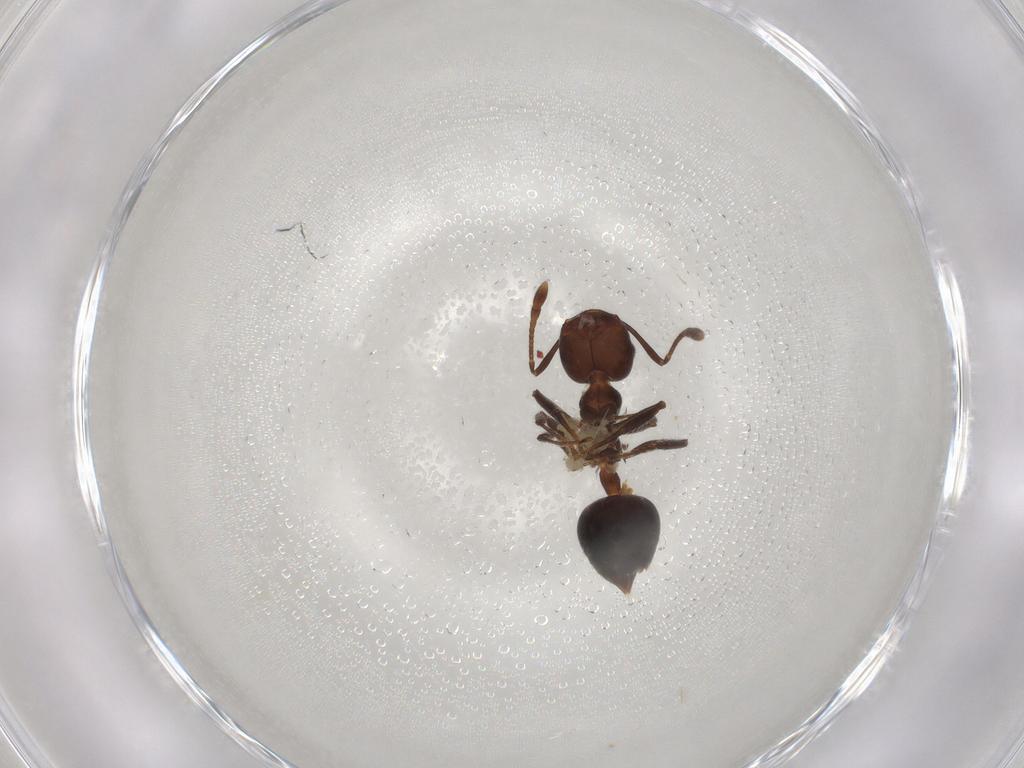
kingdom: Animalia
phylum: Arthropoda
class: Insecta
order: Hymenoptera
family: Formicidae
